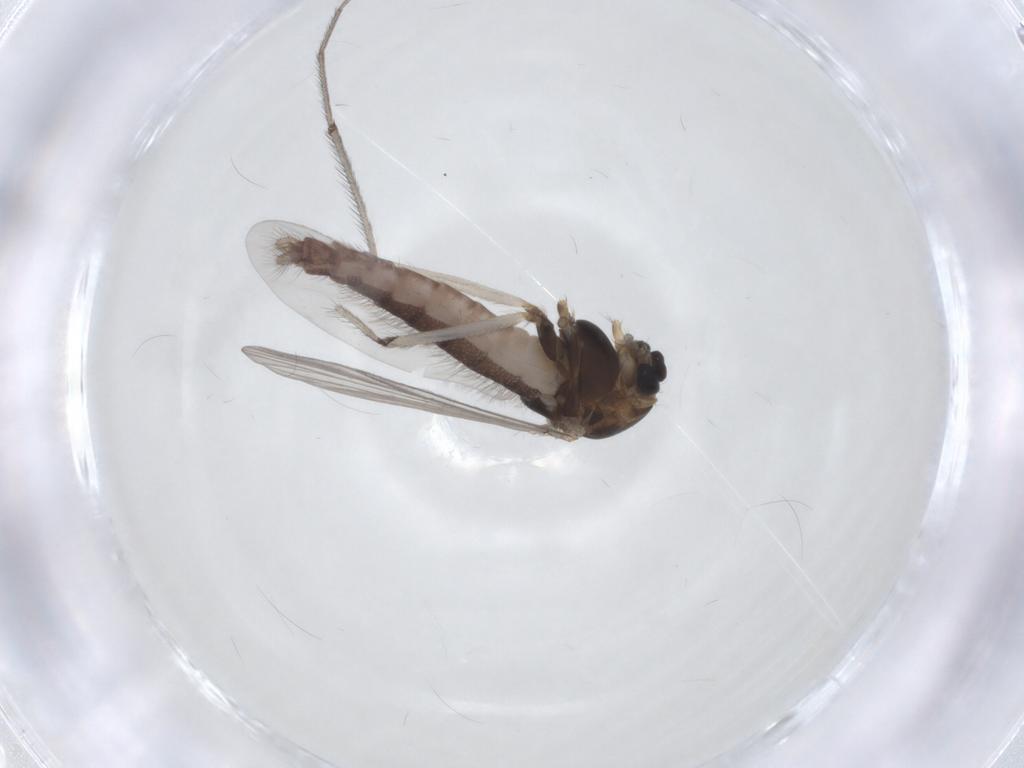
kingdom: Animalia
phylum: Arthropoda
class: Insecta
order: Diptera
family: Chironomidae
